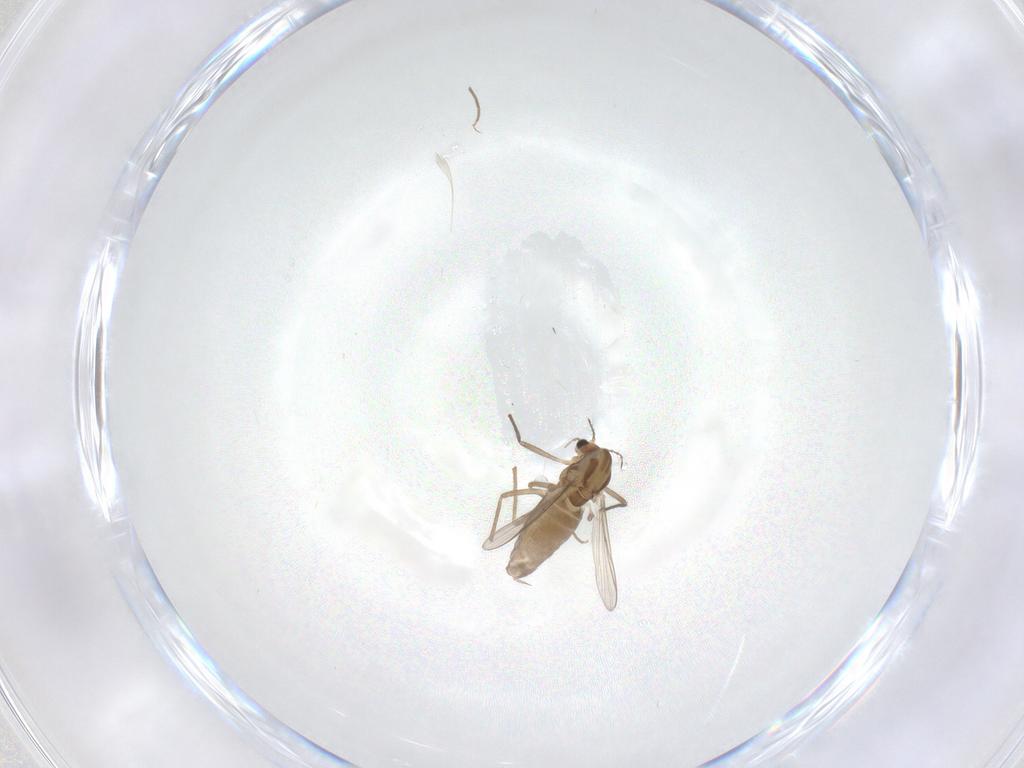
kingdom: Animalia
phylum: Arthropoda
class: Insecta
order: Diptera
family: Chironomidae
